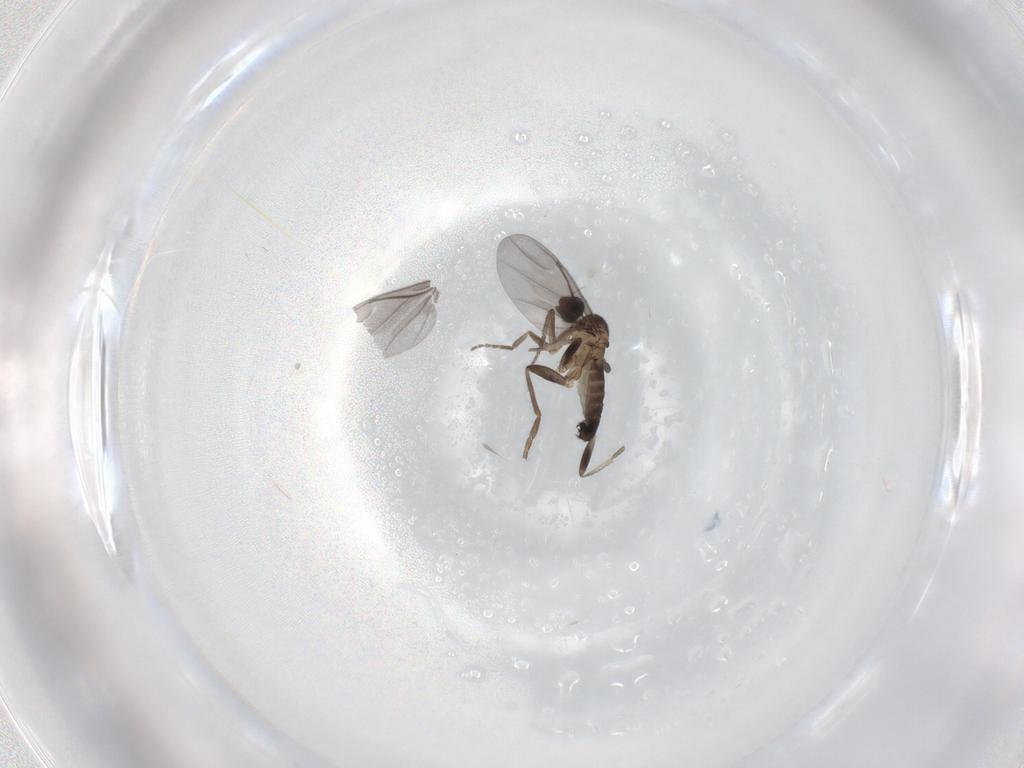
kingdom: Animalia
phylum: Arthropoda
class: Insecta
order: Diptera
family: Phoridae
